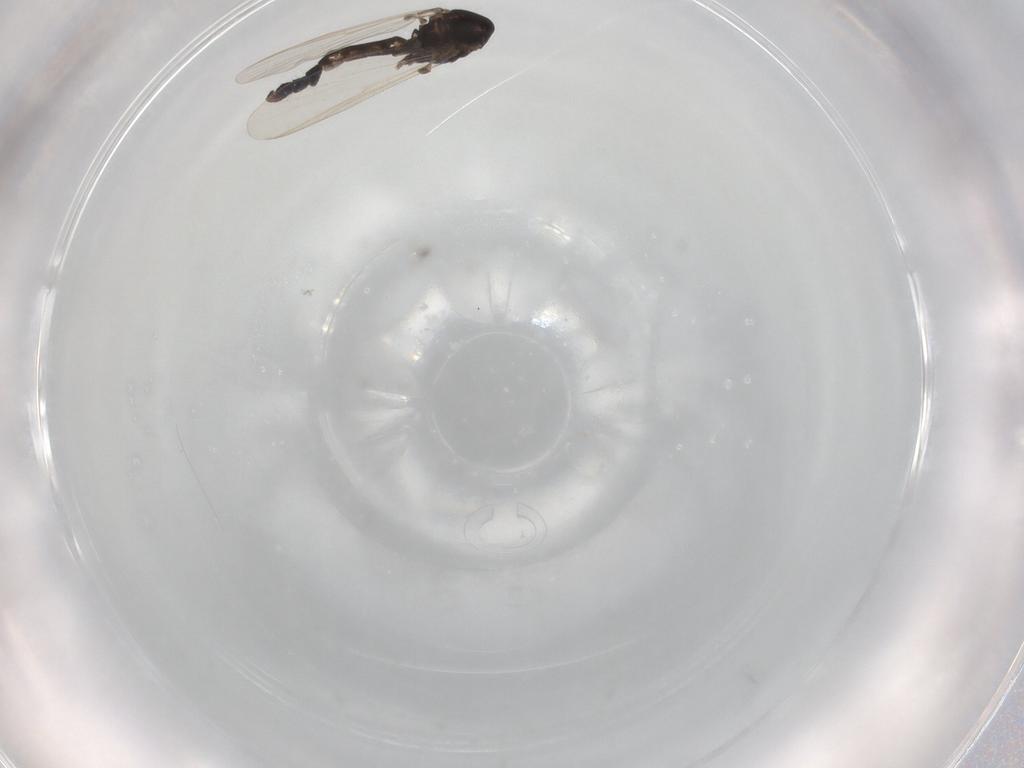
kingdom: Animalia
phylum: Arthropoda
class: Insecta
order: Diptera
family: Chironomidae
